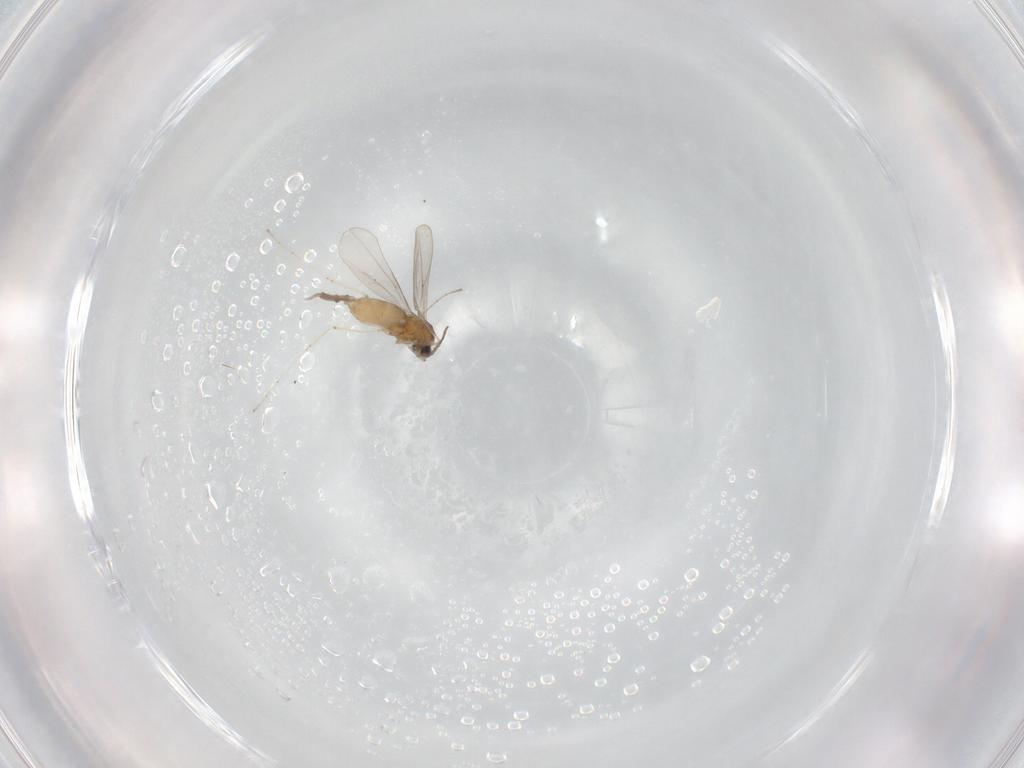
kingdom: Animalia
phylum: Arthropoda
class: Insecta
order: Diptera
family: Cecidomyiidae
